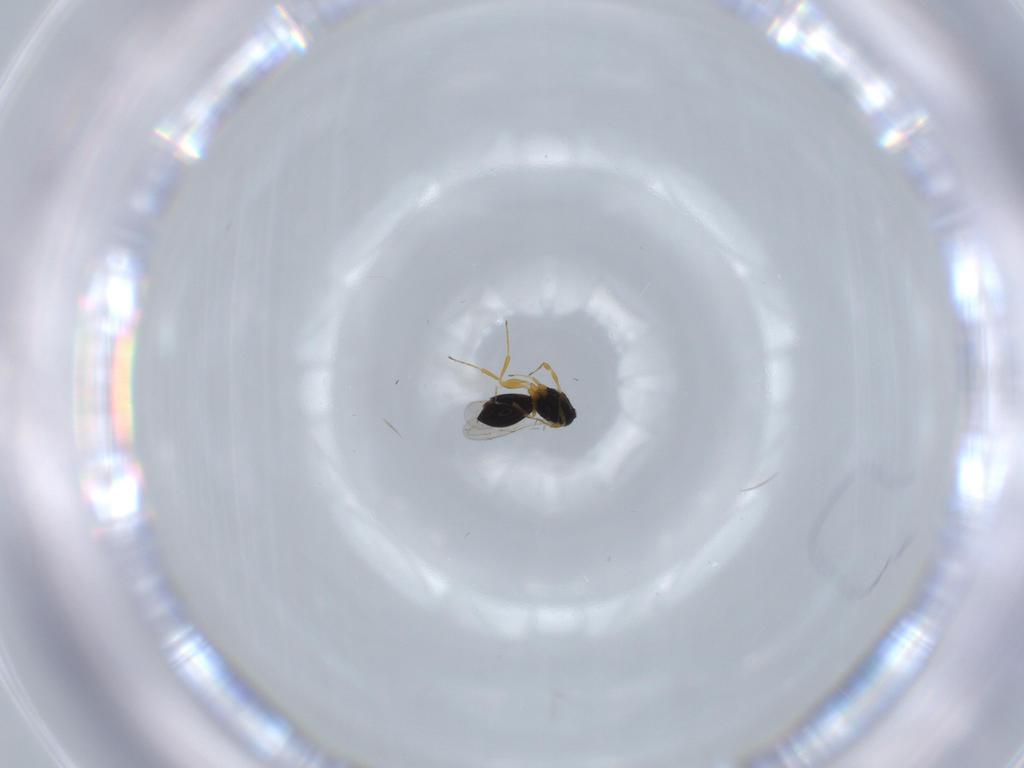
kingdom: Animalia
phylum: Arthropoda
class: Insecta
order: Hymenoptera
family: Scelionidae
